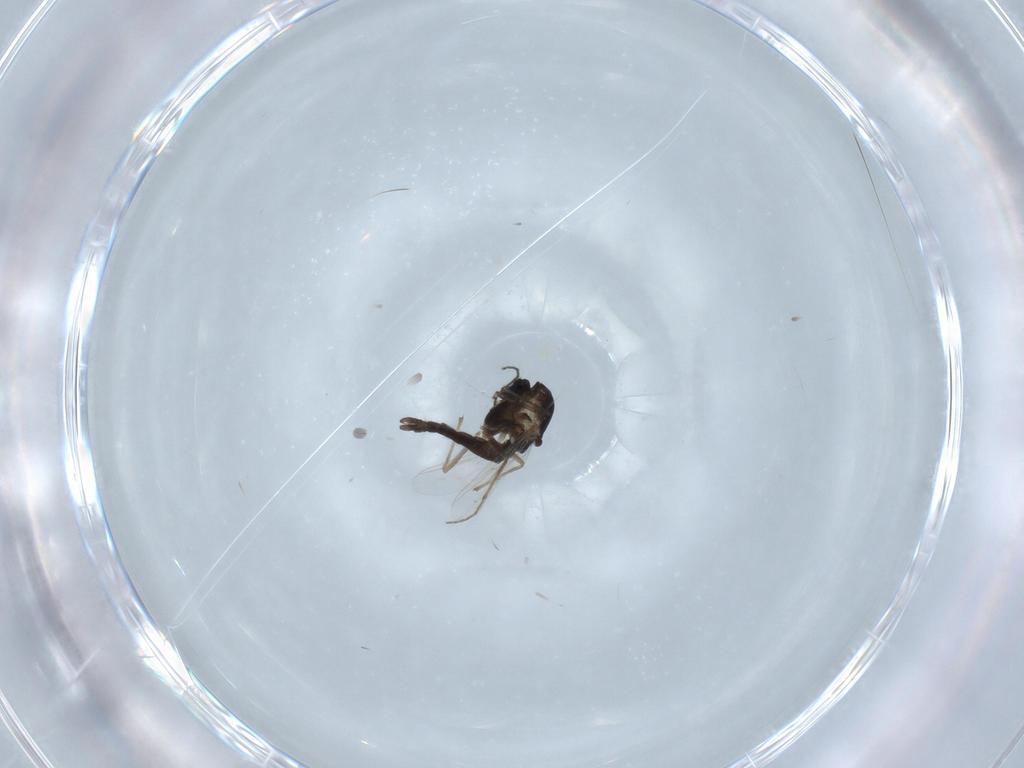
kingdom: Animalia
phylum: Arthropoda
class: Insecta
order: Diptera
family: Chironomidae
